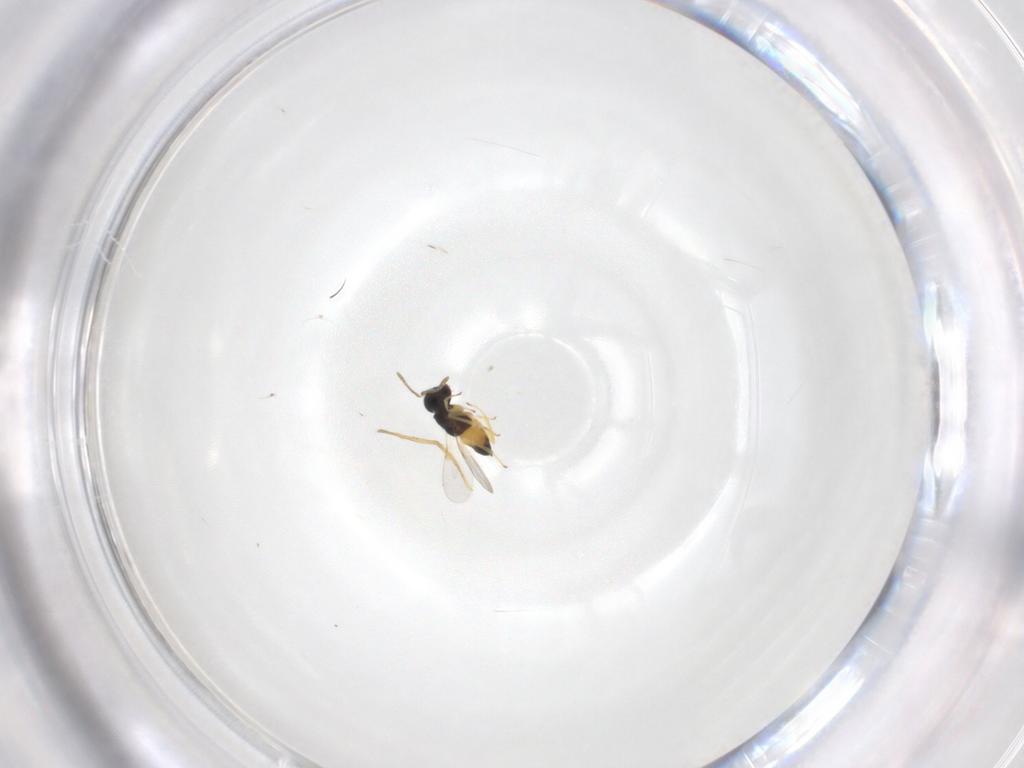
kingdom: Animalia
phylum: Arthropoda
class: Insecta
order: Hymenoptera
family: Encyrtidae
